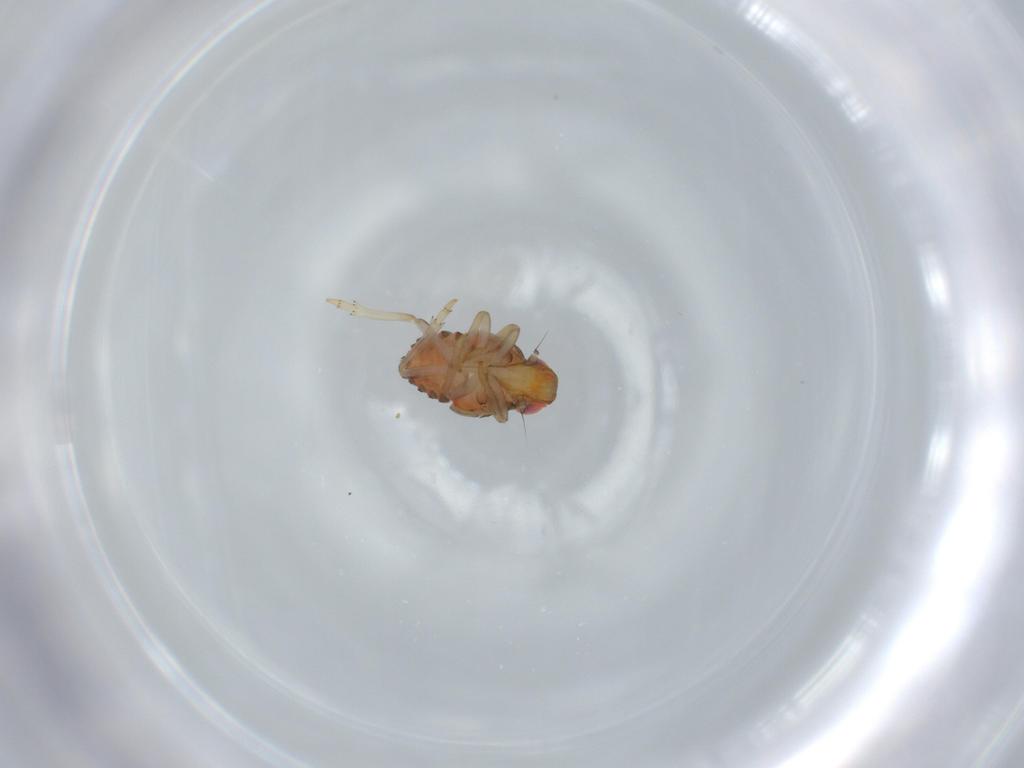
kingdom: Animalia
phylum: Arthropoda
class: Insecta
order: Hemiptera
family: Issidae
